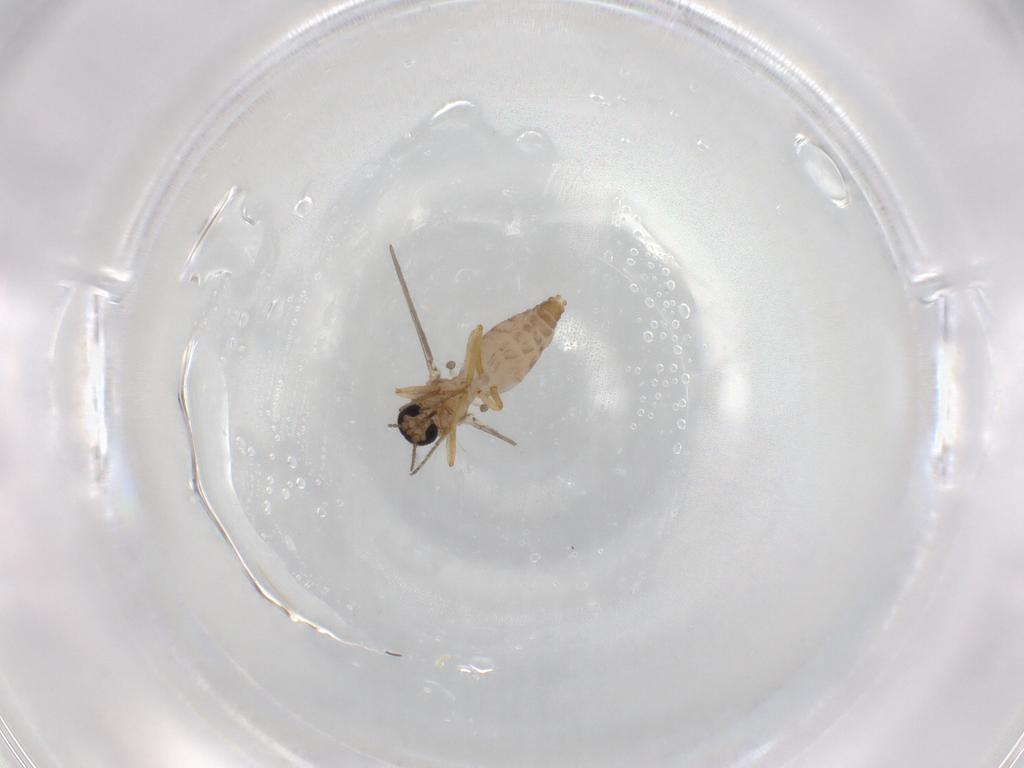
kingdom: Animalia
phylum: Arthropoda
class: Insecta
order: Diptera
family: Ceratopogonidae
